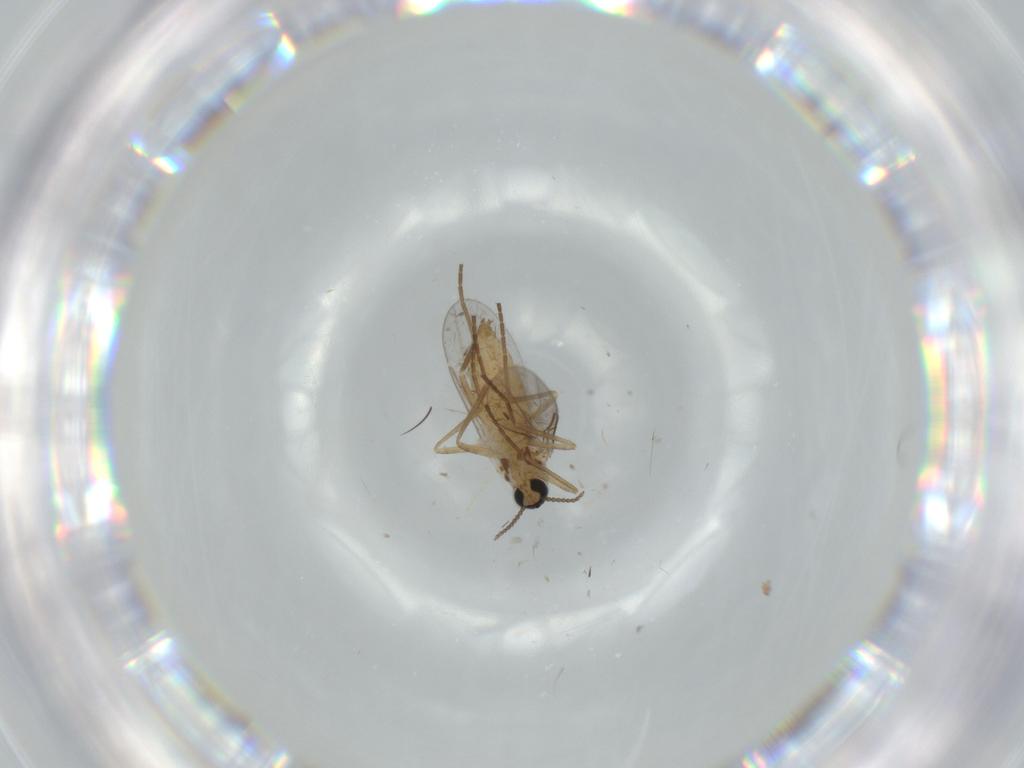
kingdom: Animalia
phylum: Arthropoda
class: Insecta
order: Diptera
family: Cecidomyiidae
